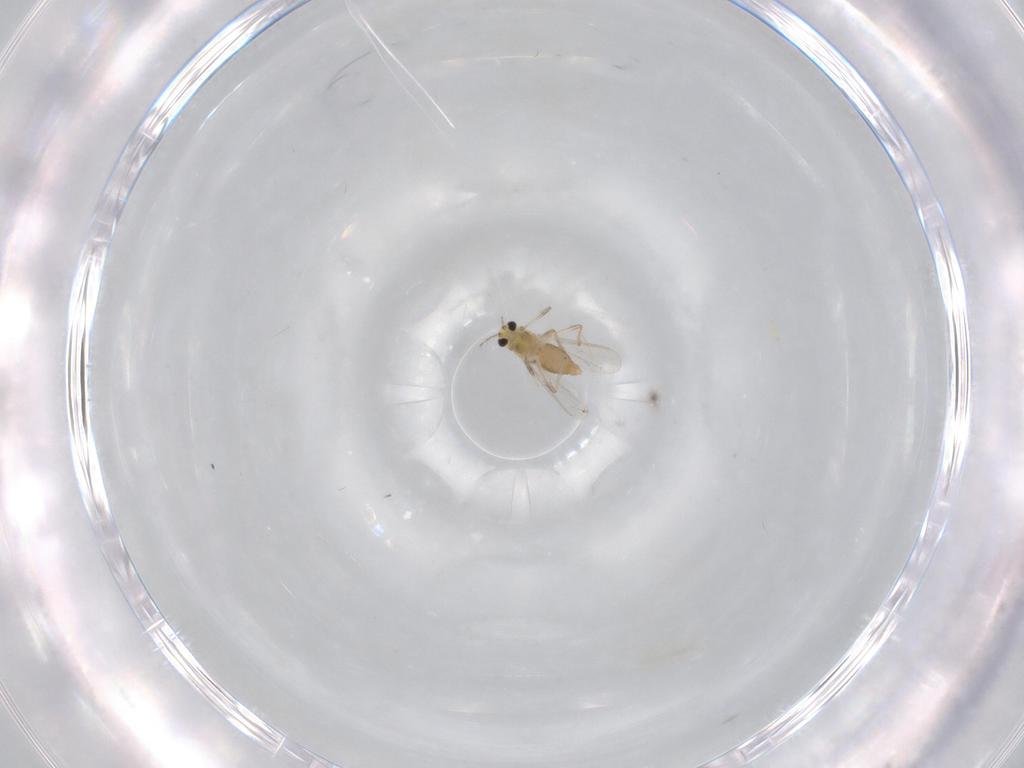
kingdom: Animalia
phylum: Arthropoda
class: Insecta
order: Diptera
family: Chironomidae
